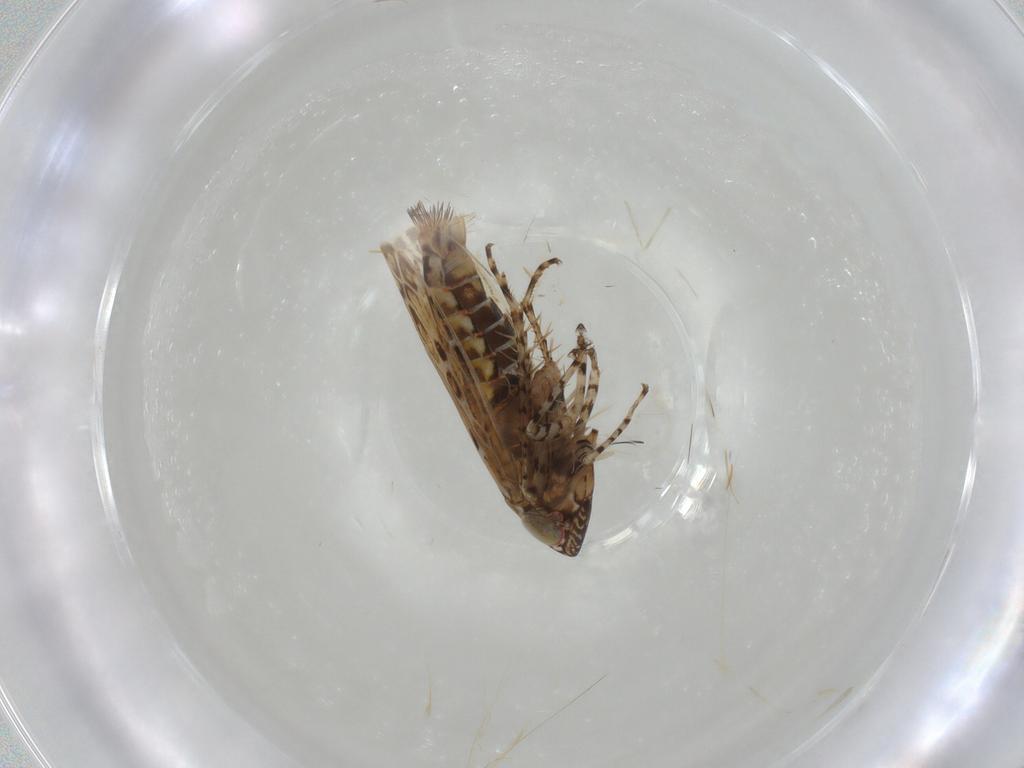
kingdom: Animalia
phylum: Arthropoda
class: Insecta
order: Hemiptera
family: Cicadellidae
